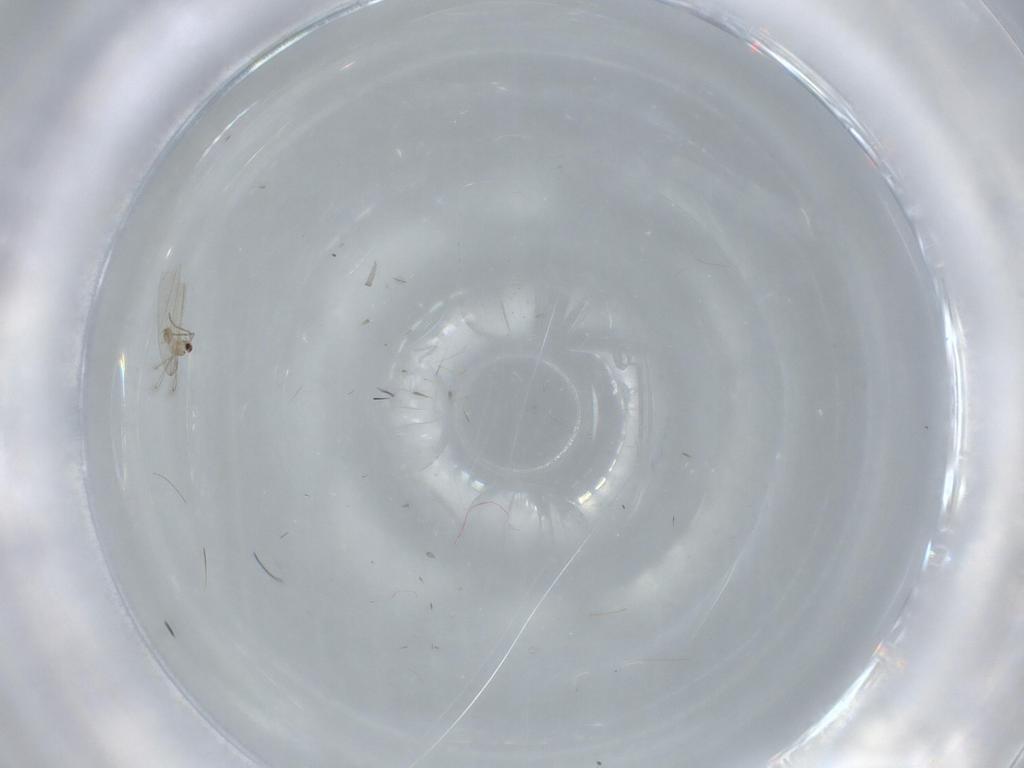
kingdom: Animalia
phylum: Arthropoda
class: Insecta
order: Hymenoptera
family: Mymaridae
